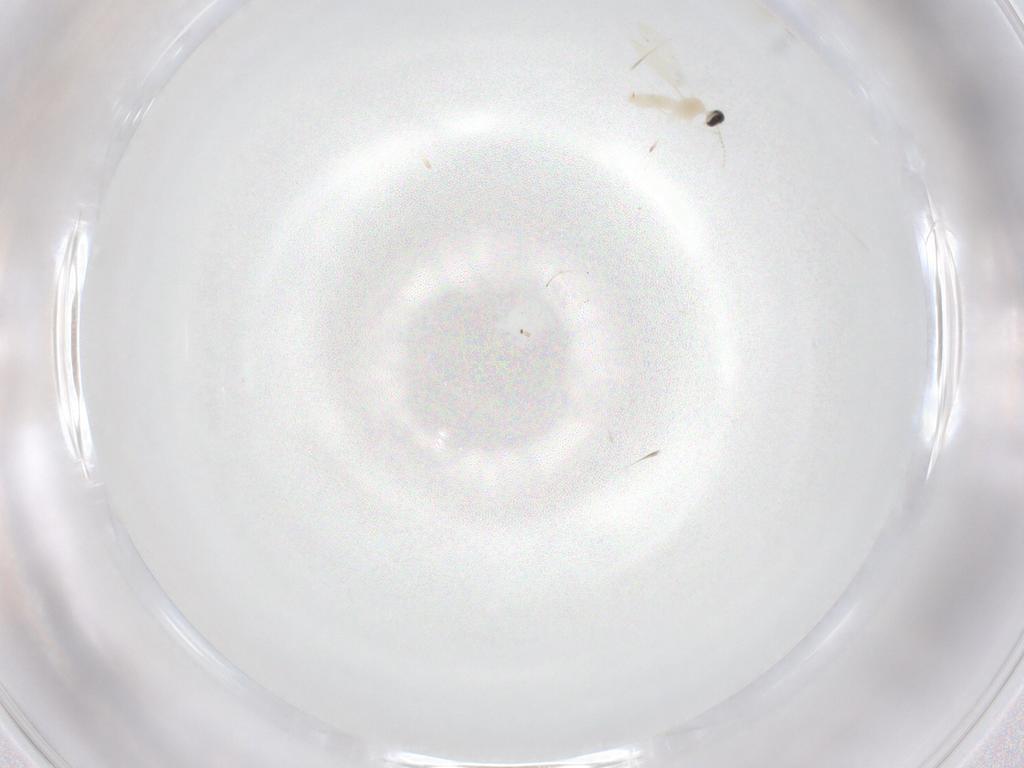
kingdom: Animalia
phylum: Arthropoda
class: Insecta
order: Diptera
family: Cecidomyiidae
